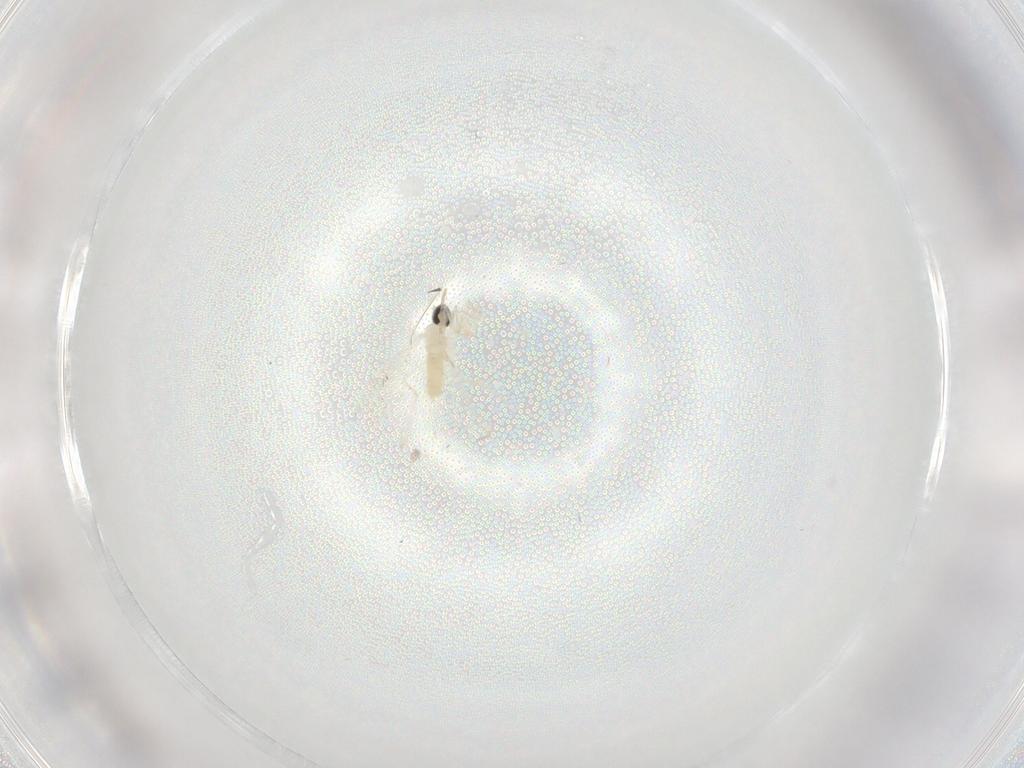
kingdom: Animalia
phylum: Arthropoda
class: Insecta
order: Diptera
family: Cecidomyiidae
